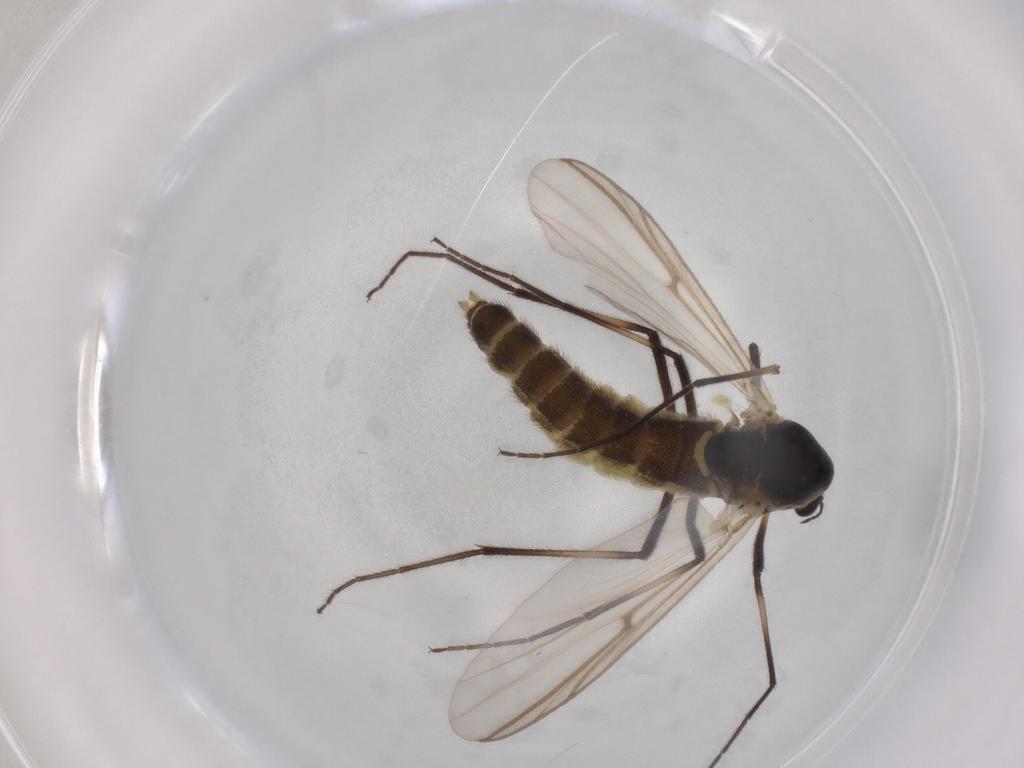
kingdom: Animalia
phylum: Arthropoda
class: Insecta
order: Diptera
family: Chironomidae
